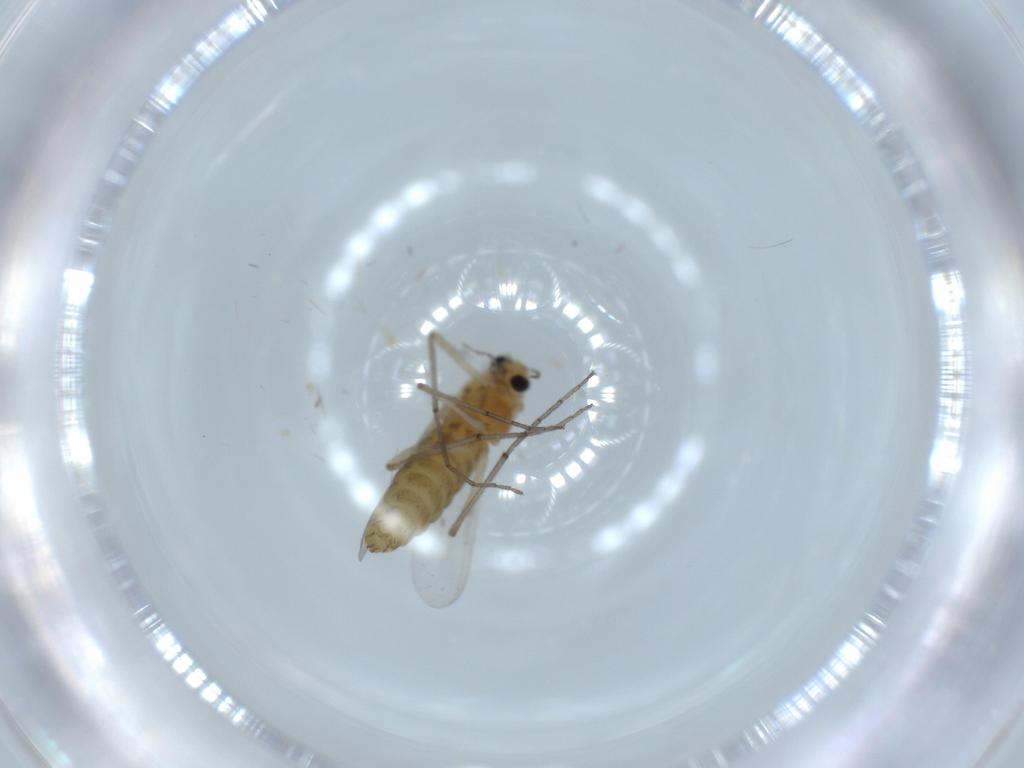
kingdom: Animalia
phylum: Arthropoda
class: Insecta
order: Diptera
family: Chironomidae
